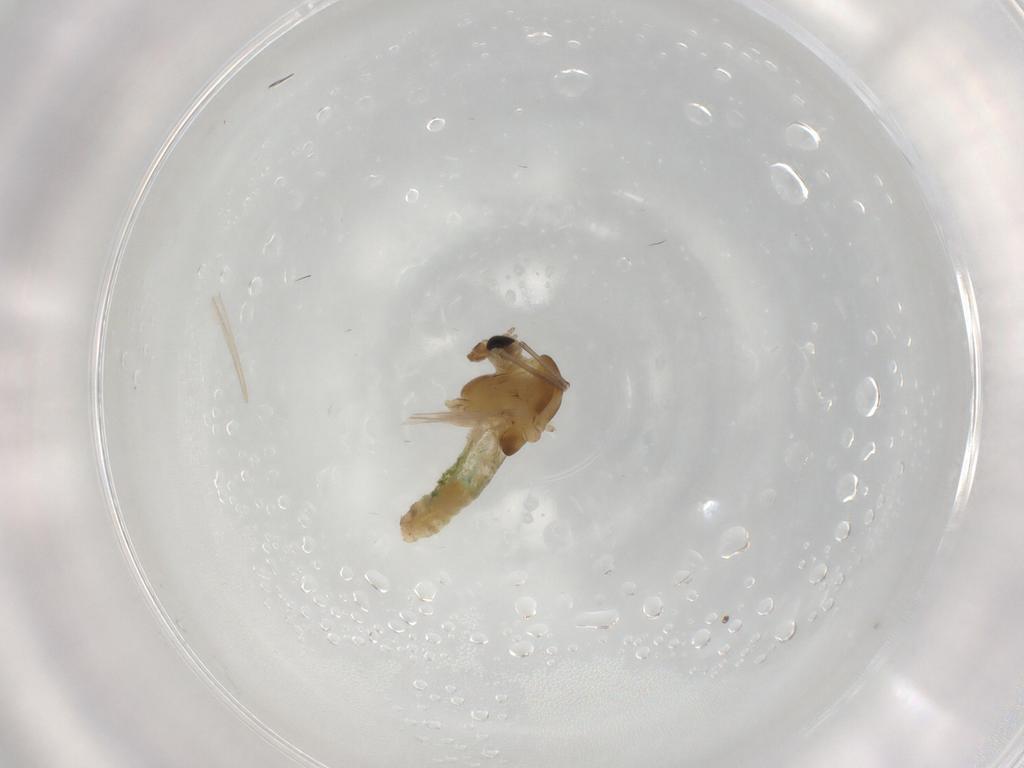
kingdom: Animalia
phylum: Arthropoda
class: Insecta
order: Diptera
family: Chironomidae
